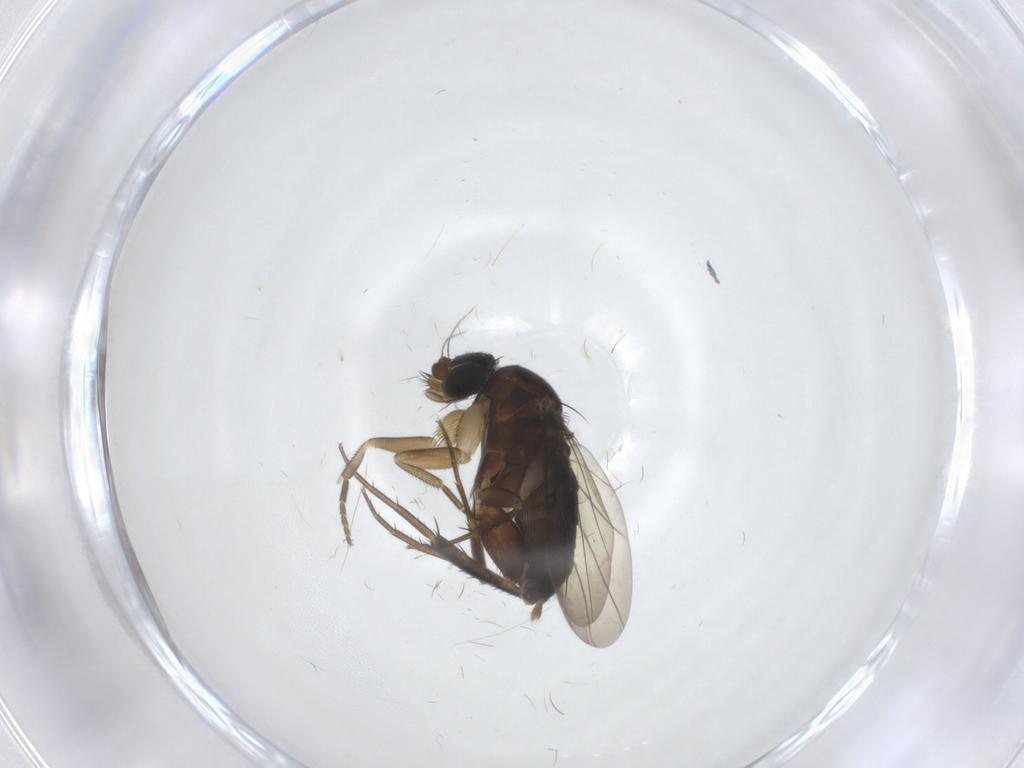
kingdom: Animalia
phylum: Arthropoda
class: Insecta
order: Diptera
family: Phoridae
